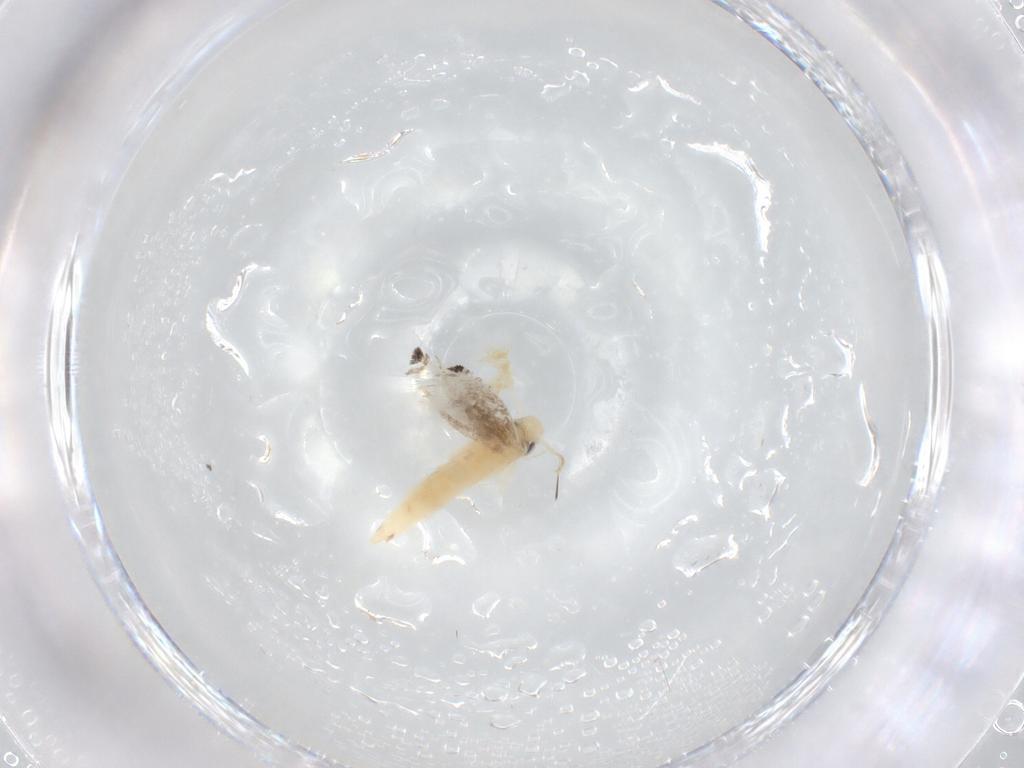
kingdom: Animalia
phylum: Arthropoda
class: Insecta
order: Lepidoptera
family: Gracillariidae
